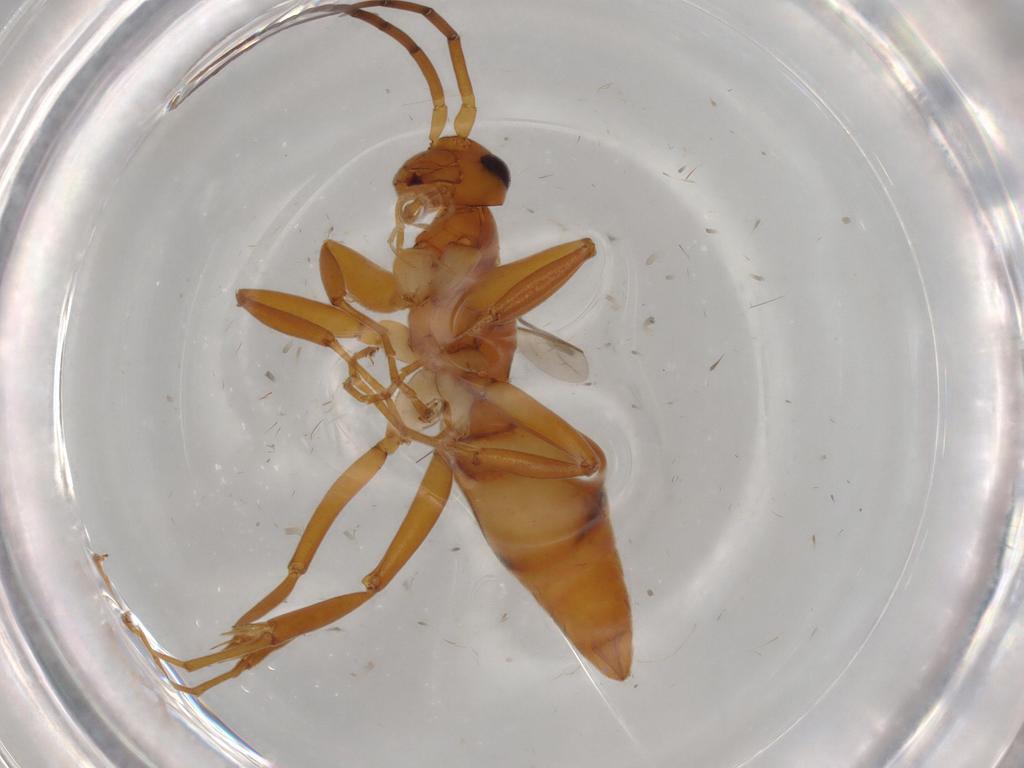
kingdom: Animalia
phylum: Arthropoda
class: Insecta
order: Hymenoptera
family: Rhopalosomatidae
